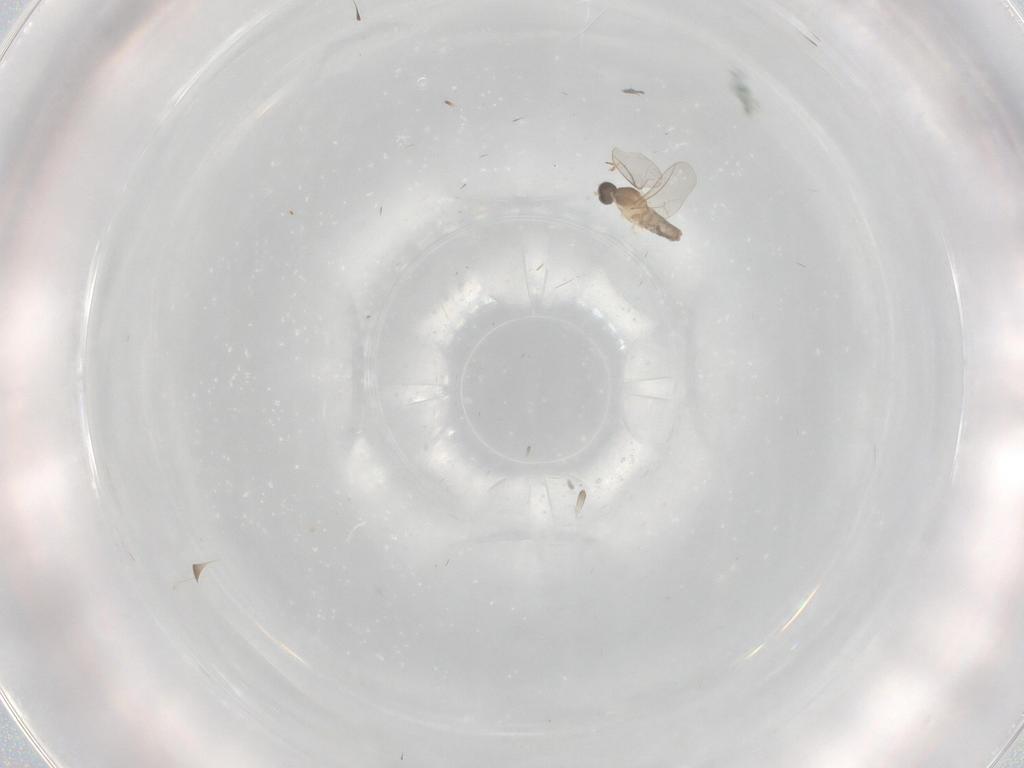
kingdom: Animalia
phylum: Arthropoda
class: Insecta
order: Diptera
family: Cecidomyiidae
